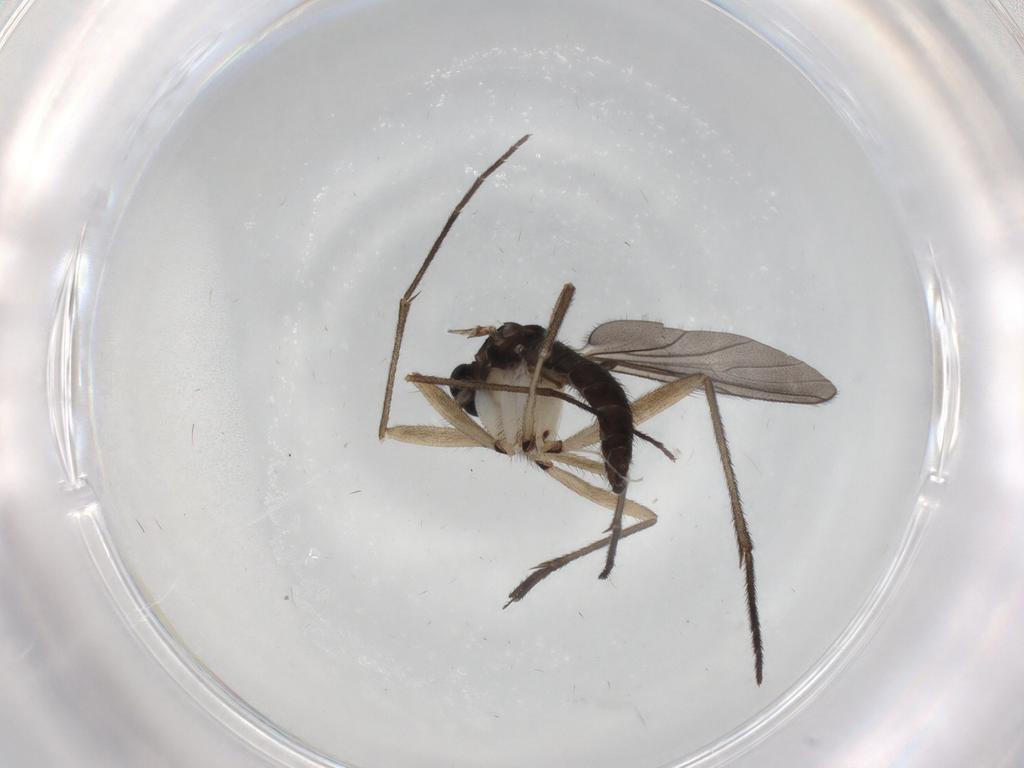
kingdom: Animalia
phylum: Arthropoda
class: Insecta
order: Diptera
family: Sciaridae
